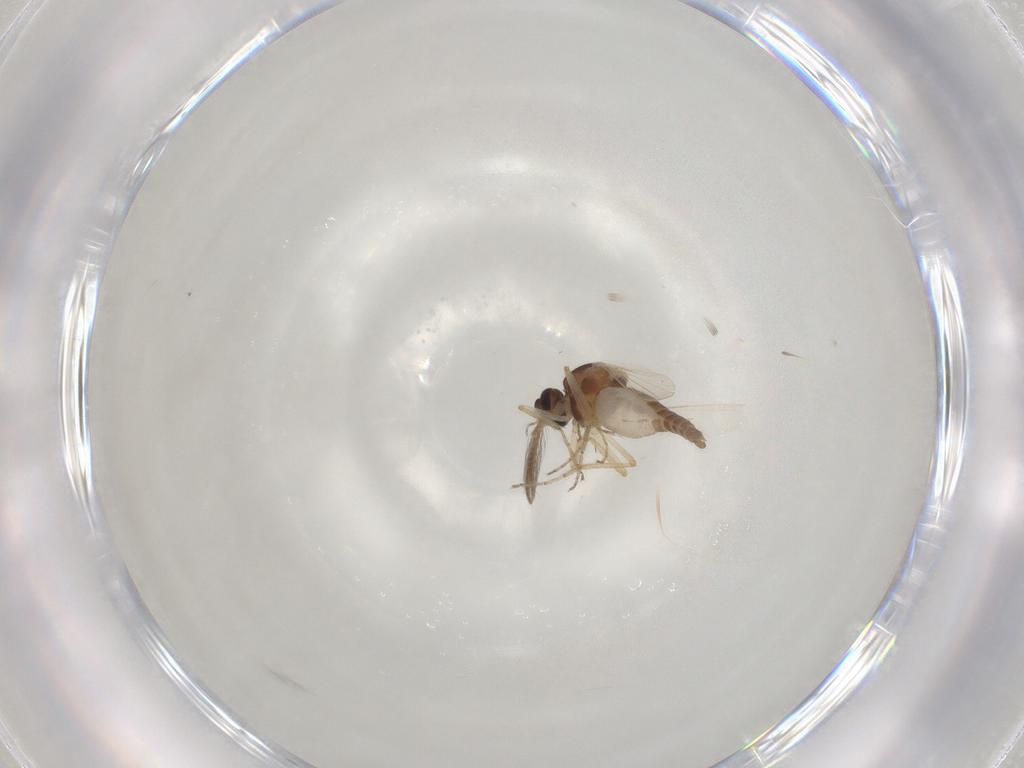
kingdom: Animalia
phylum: Arthropoda
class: Insecta
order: Diptera
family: Ceratopogonidae
